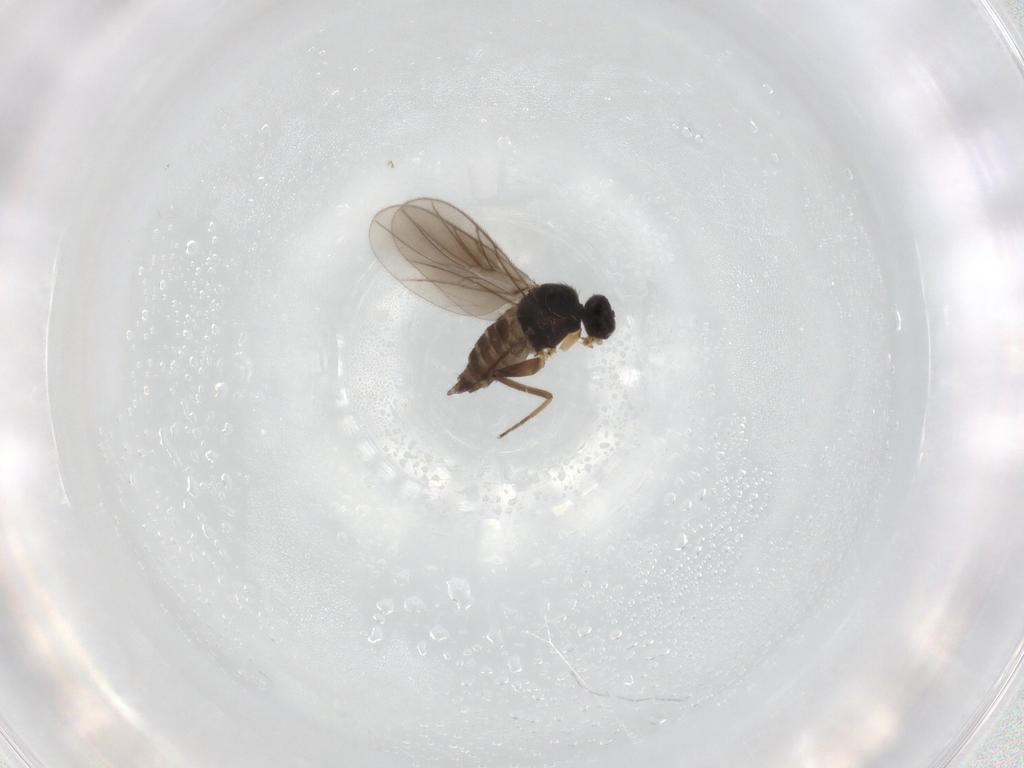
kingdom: Animalia
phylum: Arthropoda
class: Insecta
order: Diptera
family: Hybotidae
